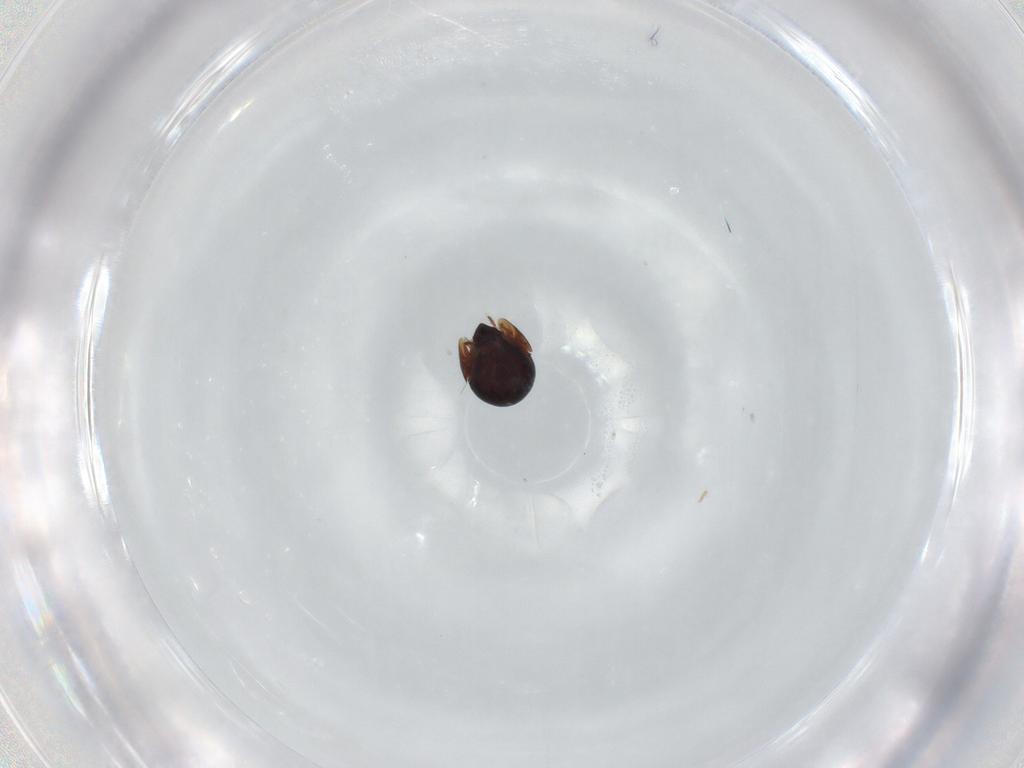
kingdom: Animalia
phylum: Arthropoda
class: Arachnida
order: Sarcoptiformes
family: Ceratozetidae
